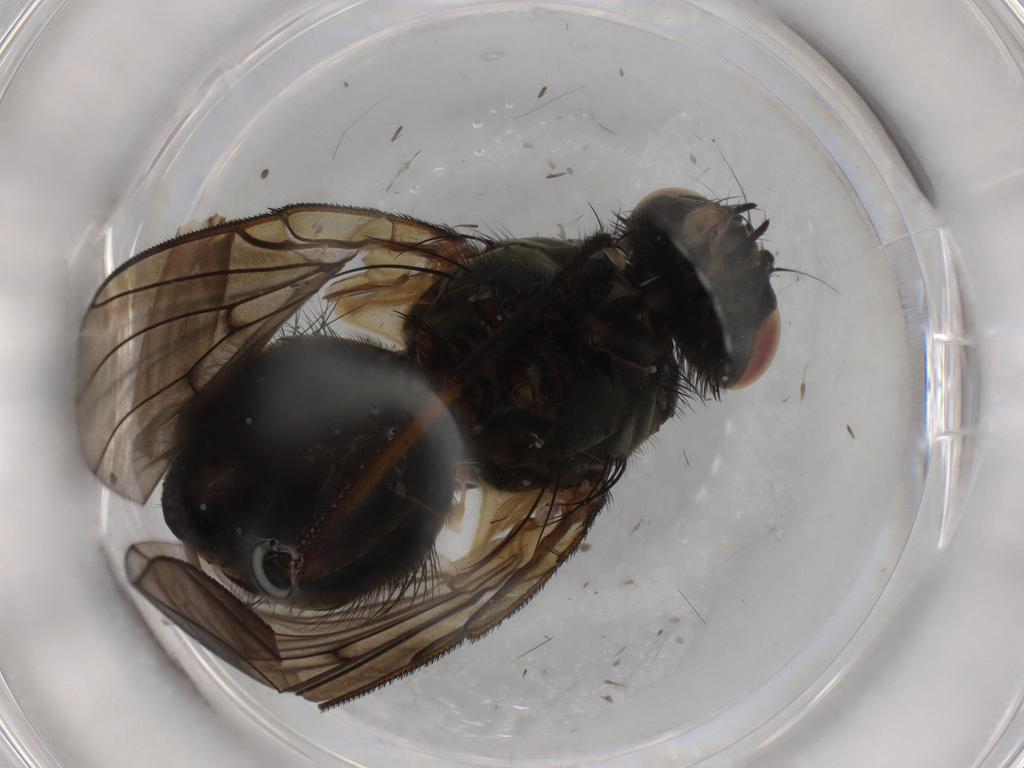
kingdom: Animalia
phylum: Arthropoda
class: Insecta
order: Diptera
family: Muscidae
